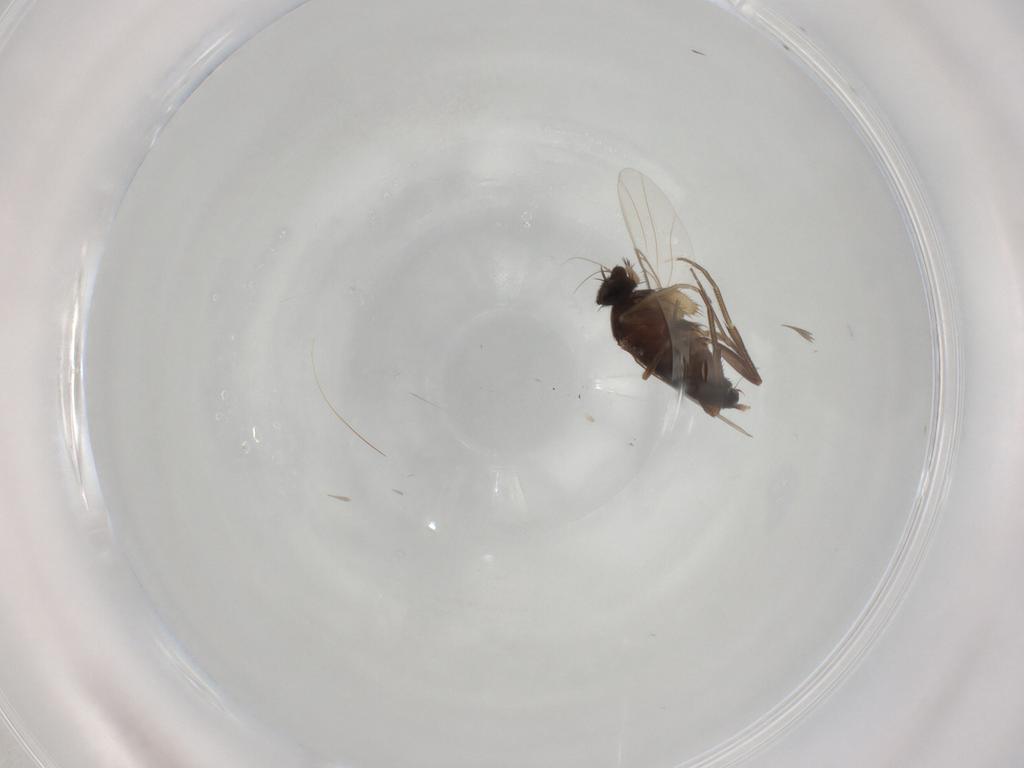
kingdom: Animalia
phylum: Arthropoda
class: Insecta
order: Diptera
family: Phoridae
